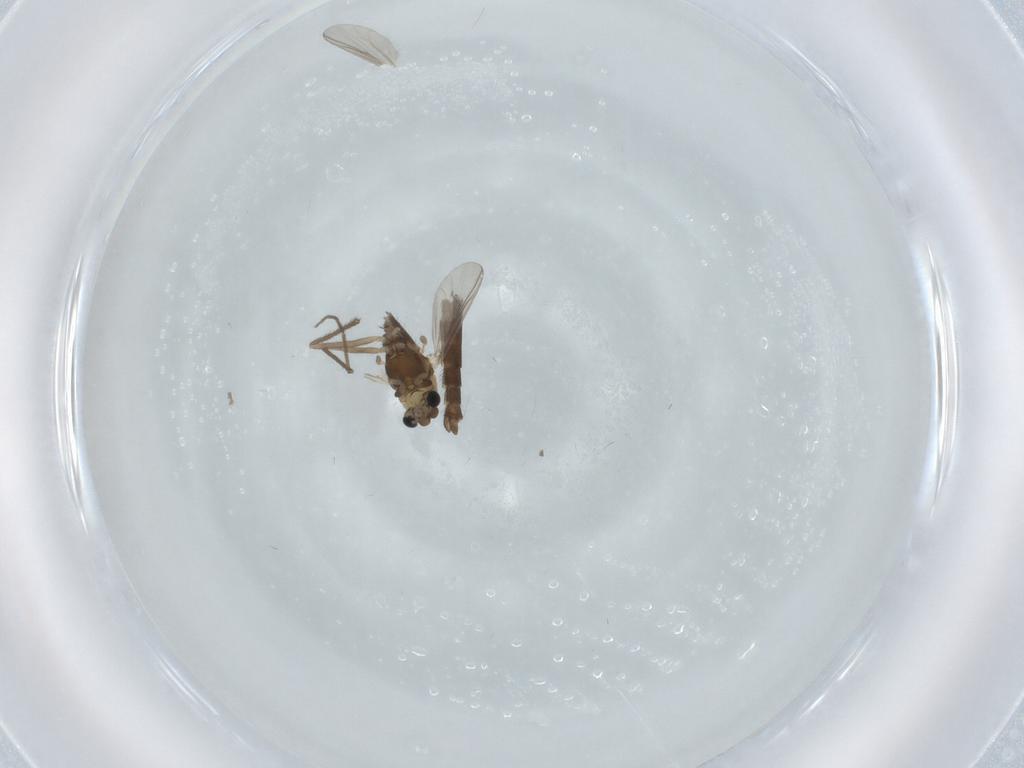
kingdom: Animalia
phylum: Arthropoda
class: Insecta
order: Diptera
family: Chironomidae
